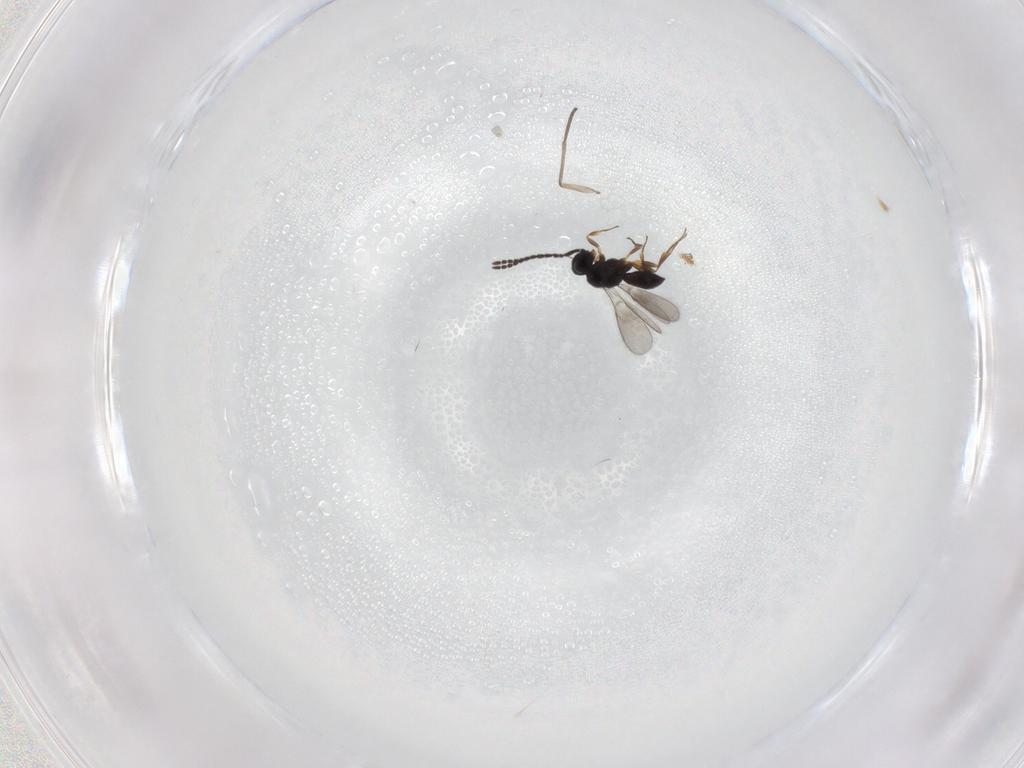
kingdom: Animalia
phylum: Arthropoda
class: Insecta
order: Hymenoptera
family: Scelionidae
